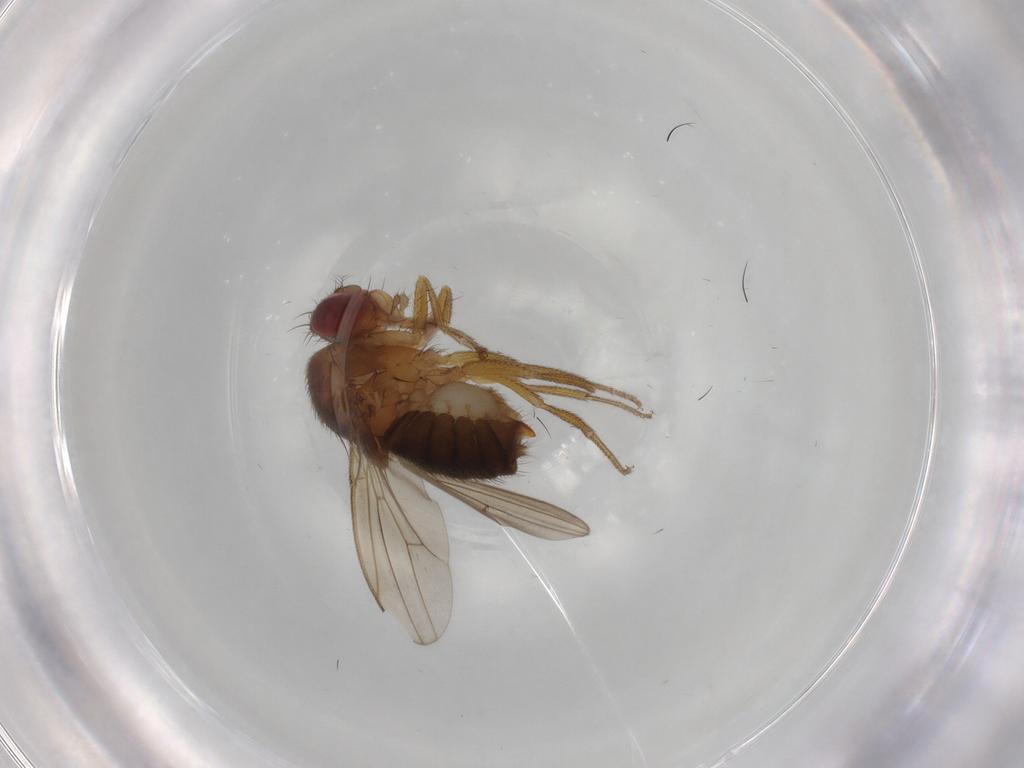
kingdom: Animalia
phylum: Arthropoda
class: Insecta
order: Diptera
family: Drosophilidae
